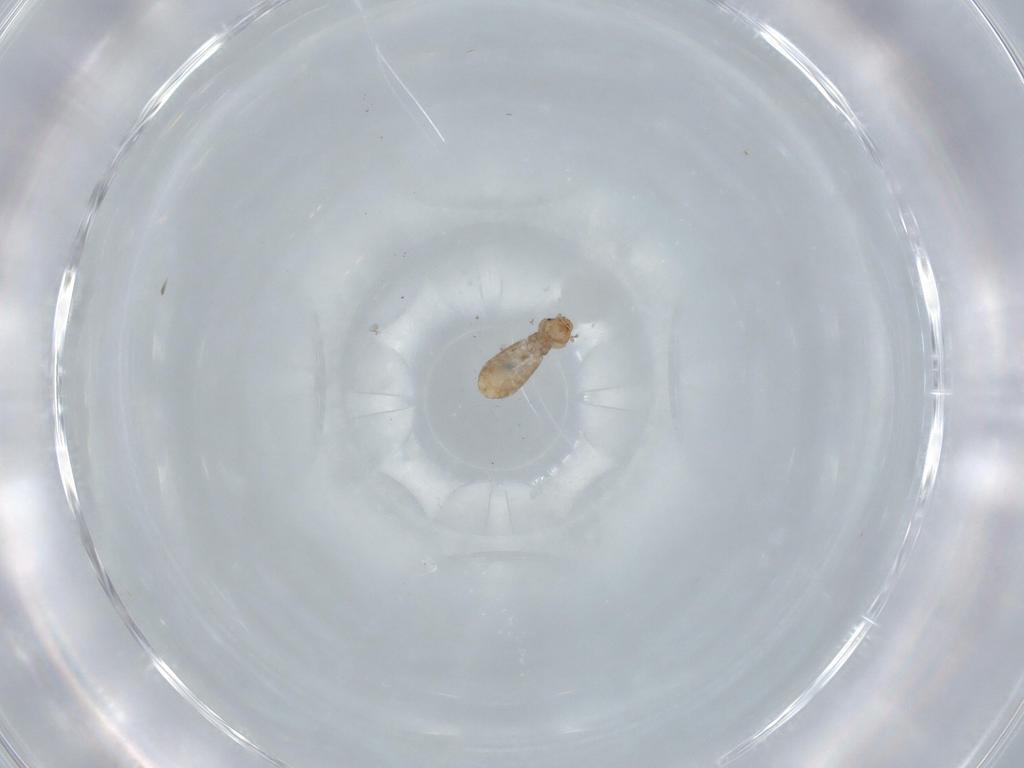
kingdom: Animalia
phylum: Arthropoda
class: Insecta
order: Psocodea
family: Liposcelididae
